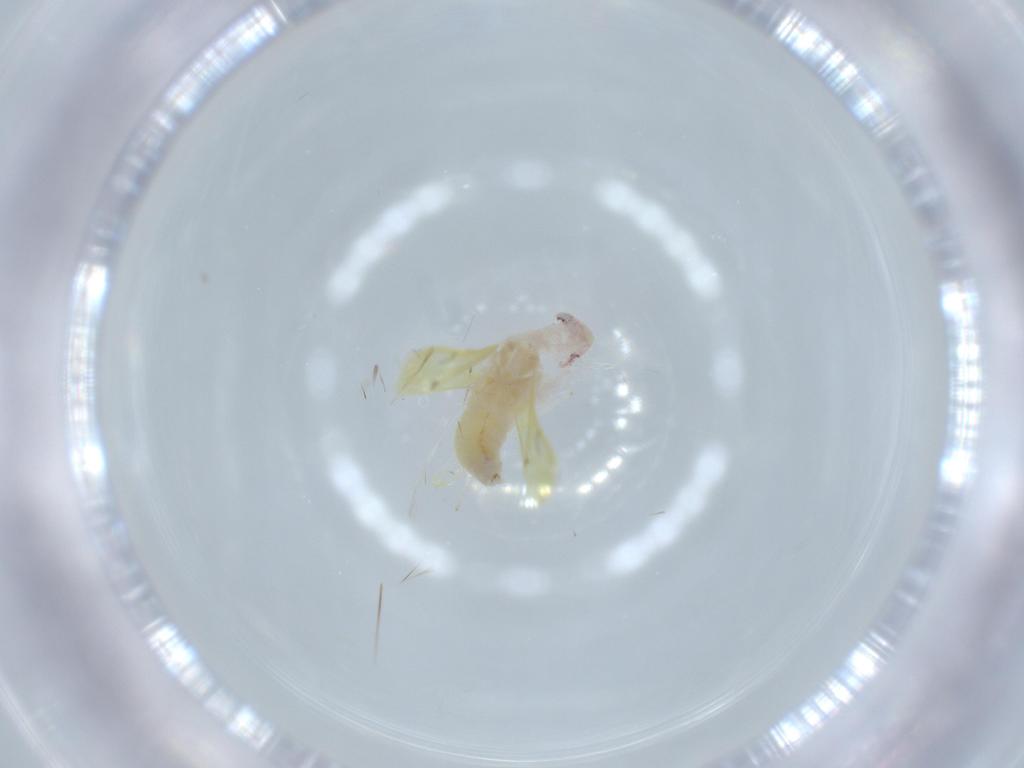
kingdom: Animalia
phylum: Arthropoda
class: Insecta
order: Hemiptera
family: Cicadellidae
